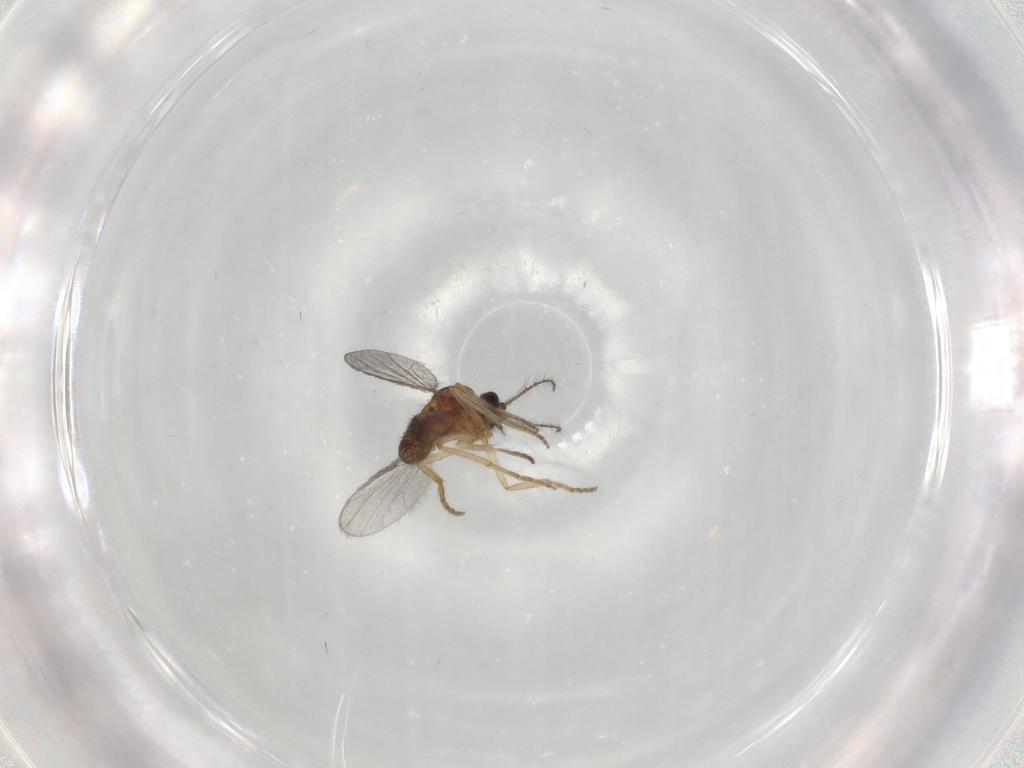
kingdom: Animalia
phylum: Arthropoda
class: Insecta
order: Diptera
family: Ceratopogonidae
